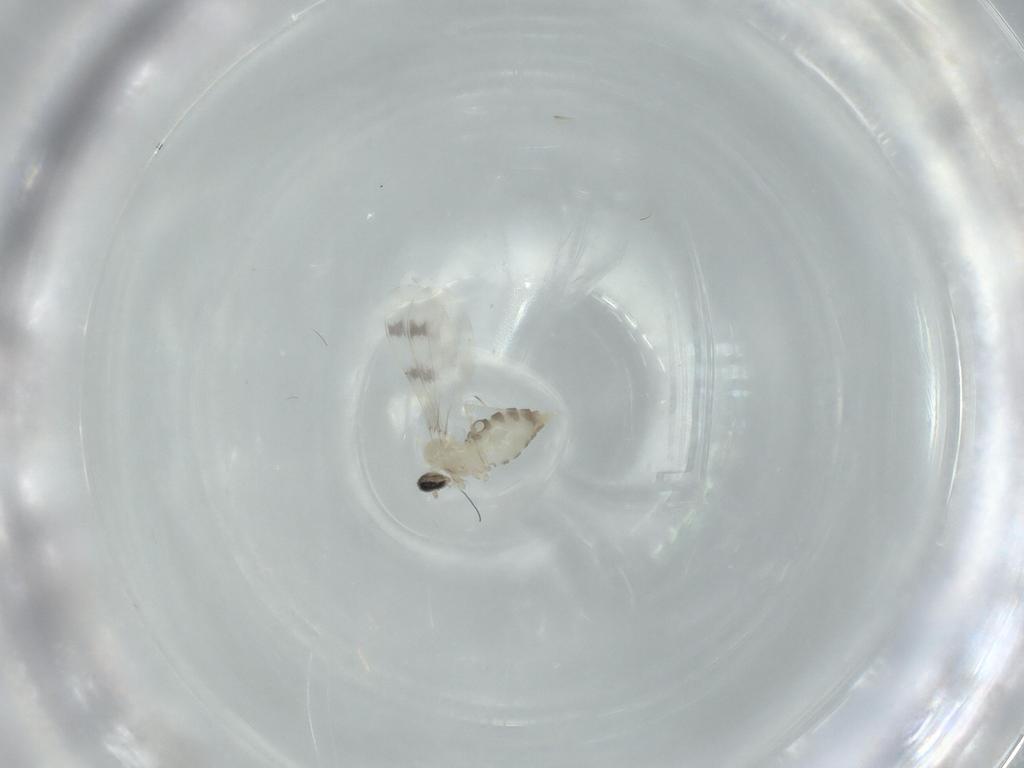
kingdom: Animalia
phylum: Arthropoda
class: Insecta
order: Diptera
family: Cecidomyiidae
